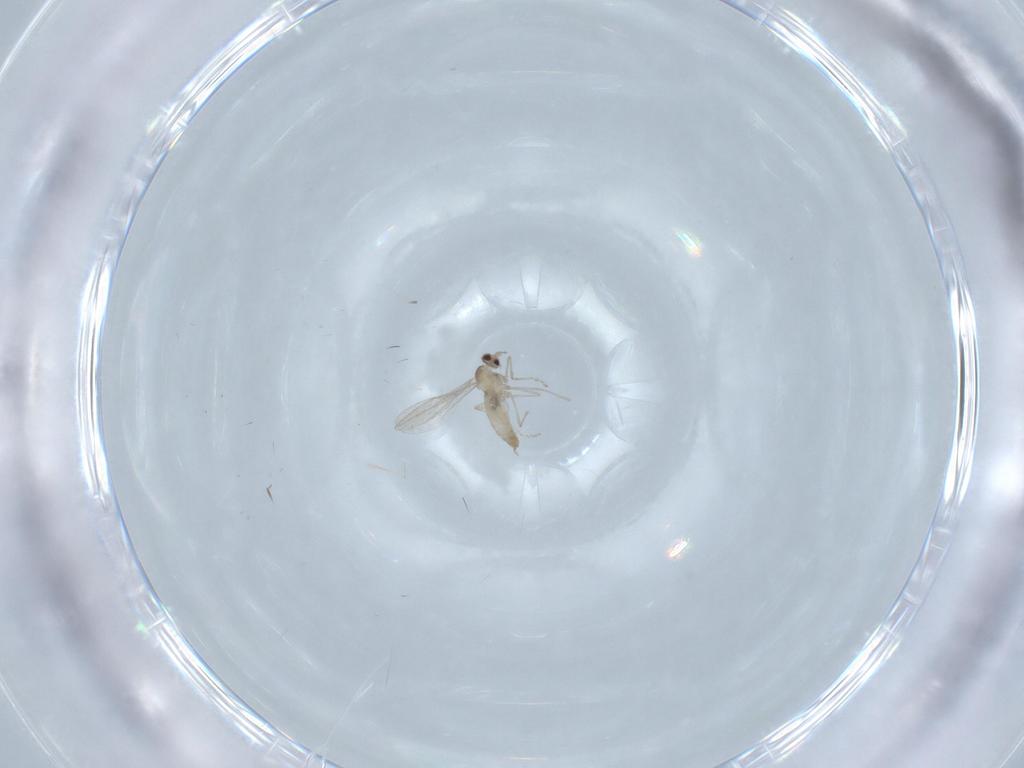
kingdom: Animalia
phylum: Arthropoda
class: Insecta
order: Diptera
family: Cecidomyiidae
